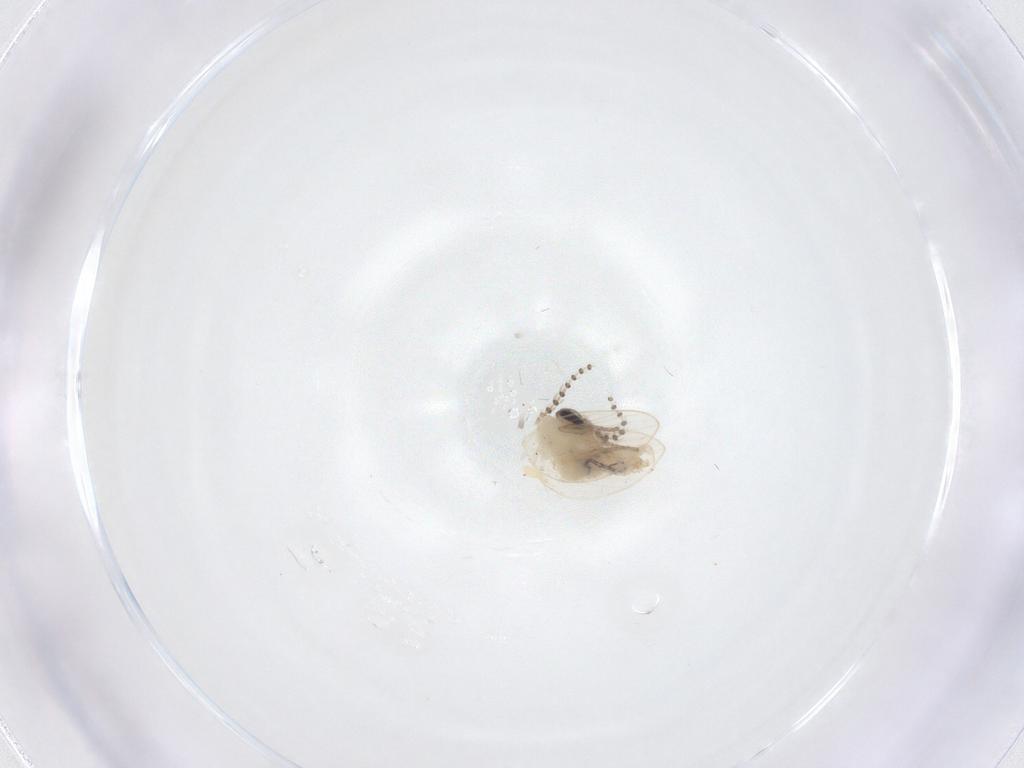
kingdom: Animalia
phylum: Arthropoda
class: Insecta
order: Diptera
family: Psychodidae
